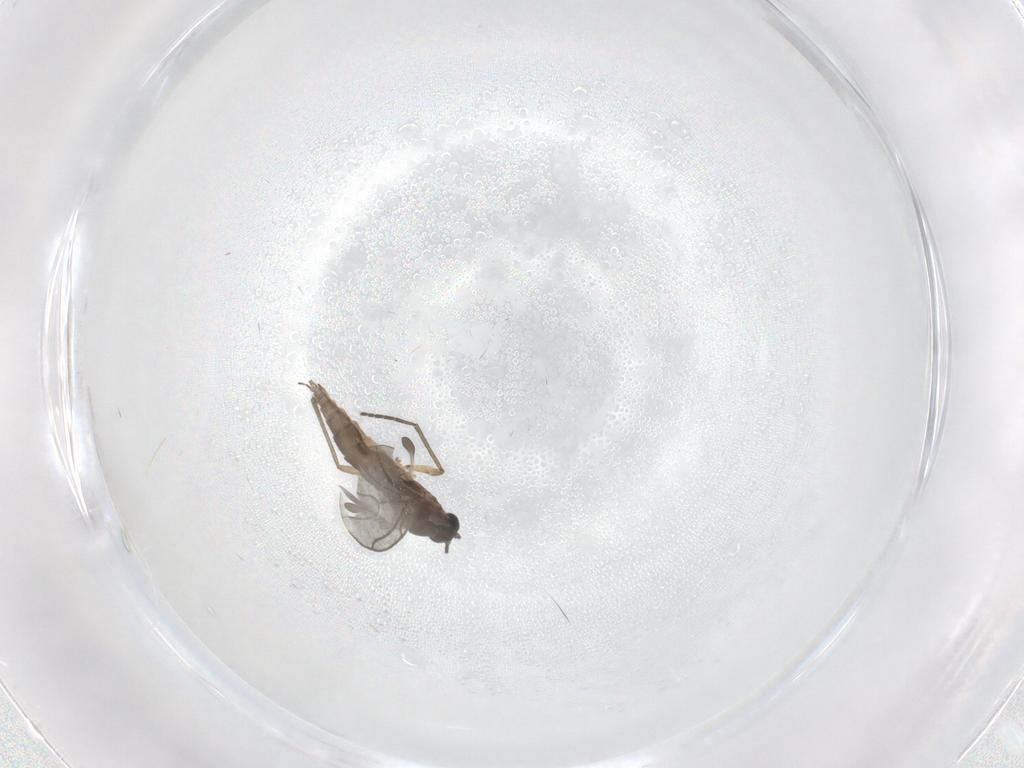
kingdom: Animalia
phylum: Arthropoda
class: Insecta
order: Diptera
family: Sciaridae
